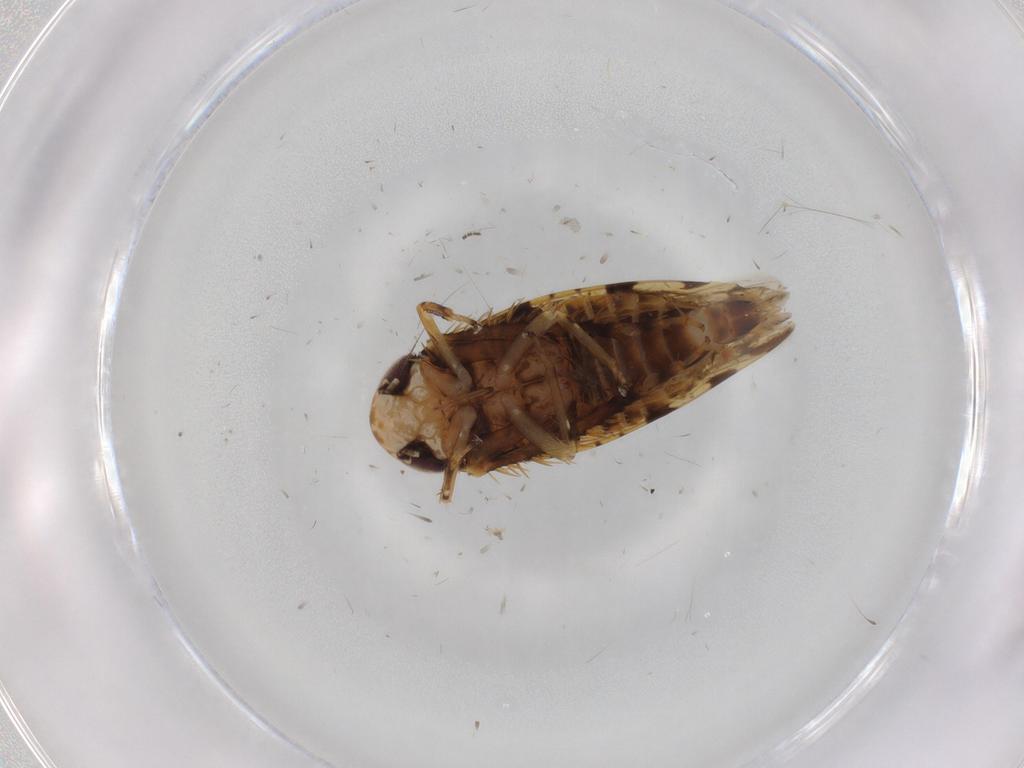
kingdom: Animalia
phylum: Arthropoda
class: Insecta
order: Hemiptera
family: Cicadellidae
